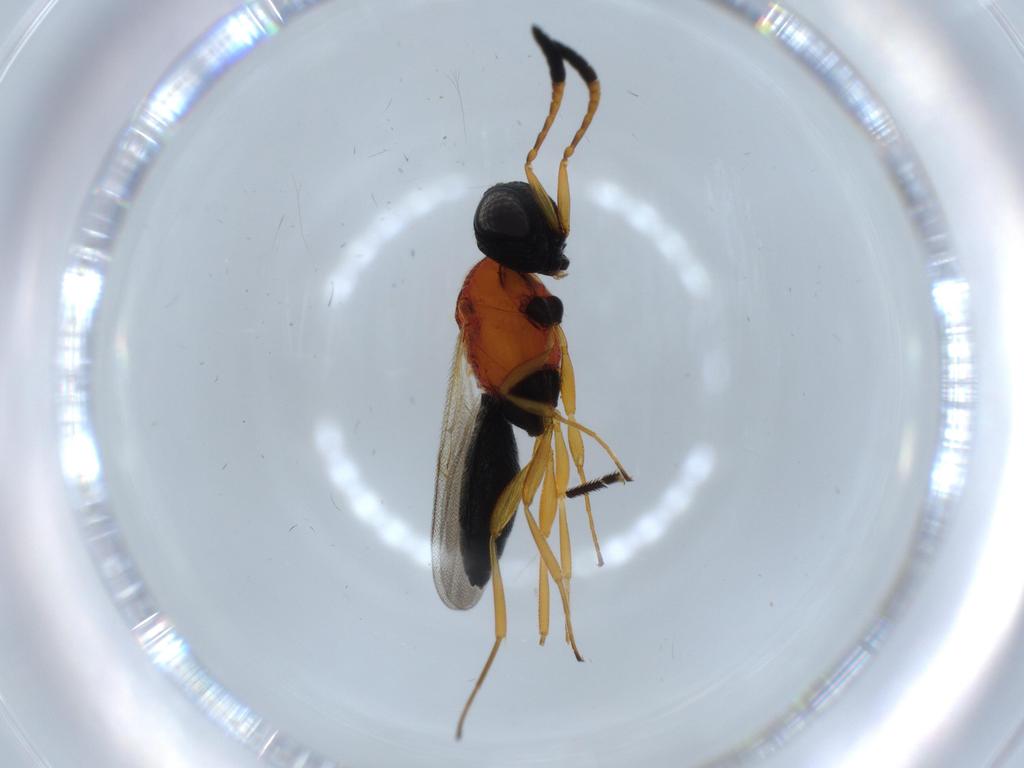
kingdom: Animalia
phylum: Arthropoda
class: Insecta
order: Hymenoptera
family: Scelionidae
